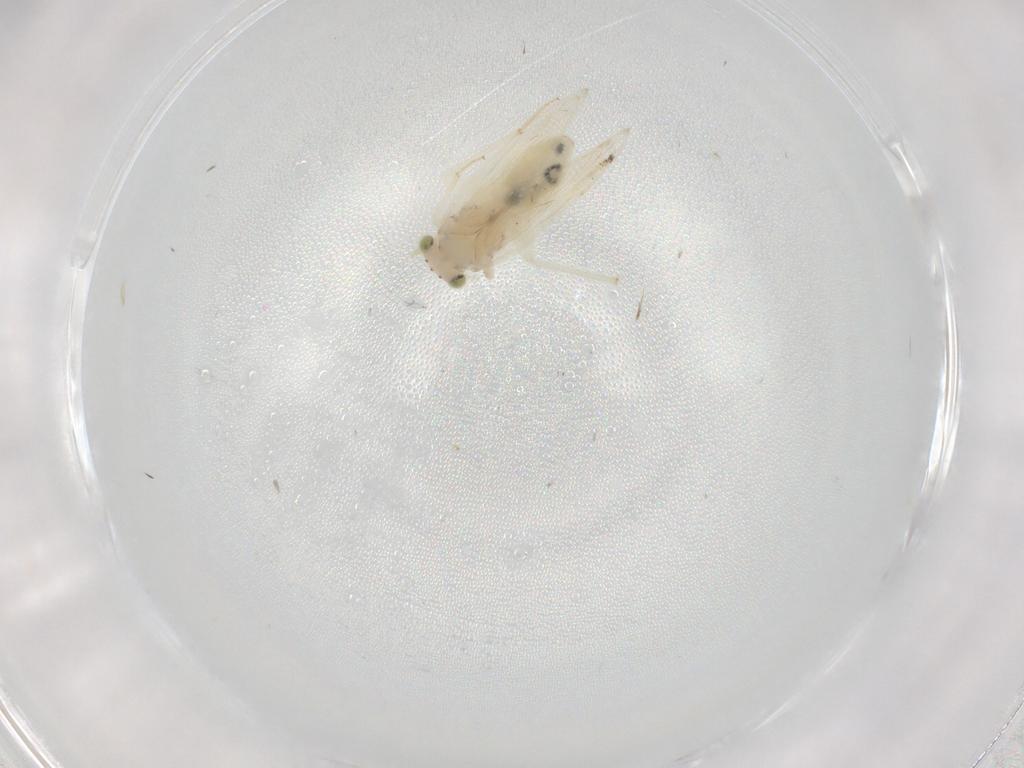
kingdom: Animalia
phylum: Arthropoda
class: Insecta
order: Psocodea
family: Lepidopsocidae
